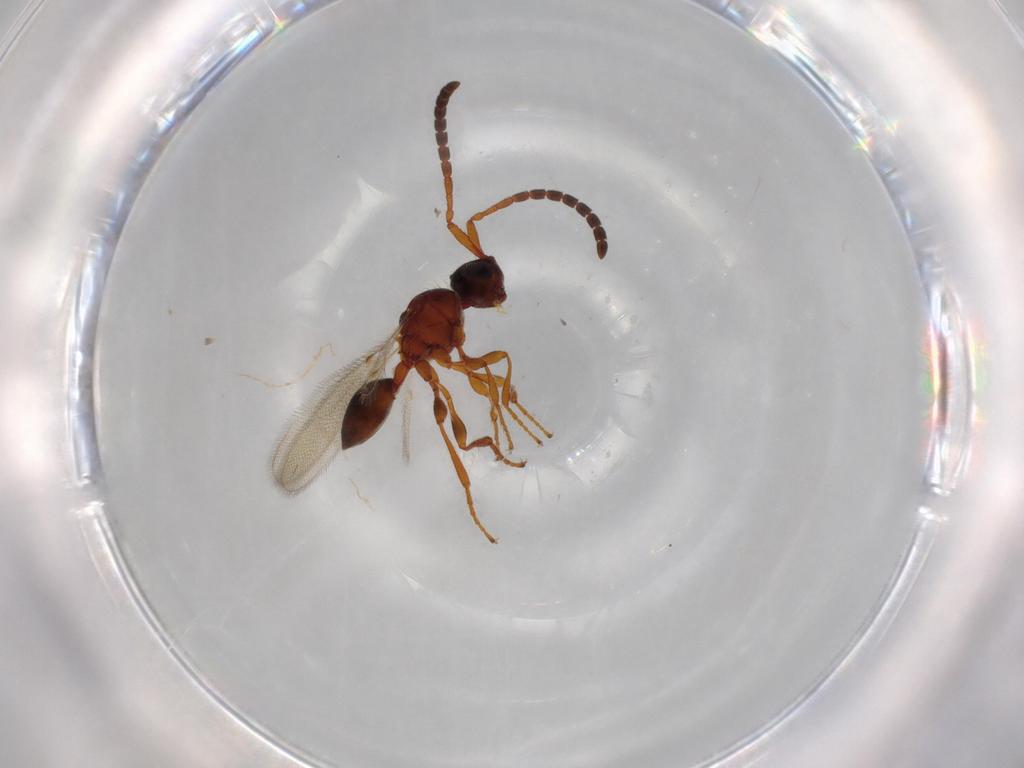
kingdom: Animalia
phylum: Arthropoda
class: Insecta
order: Hymenoptera
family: Diapriidae
